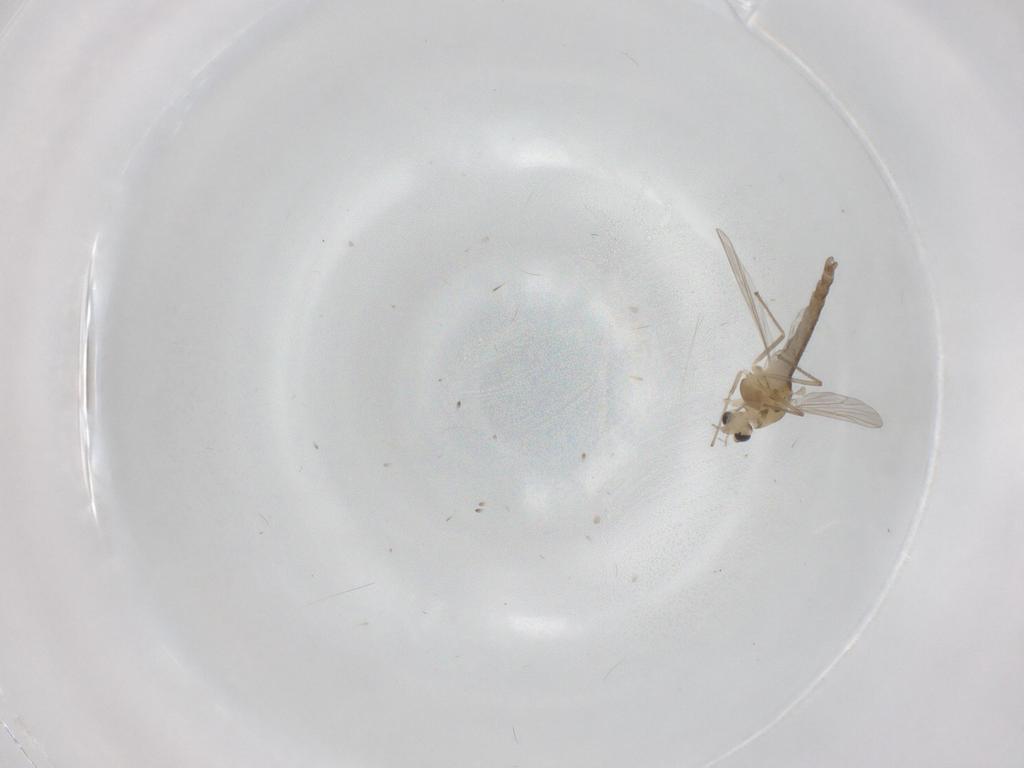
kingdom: Animalia
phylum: Arthropoda
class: Insecta
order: Diptera
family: Chironomidae
